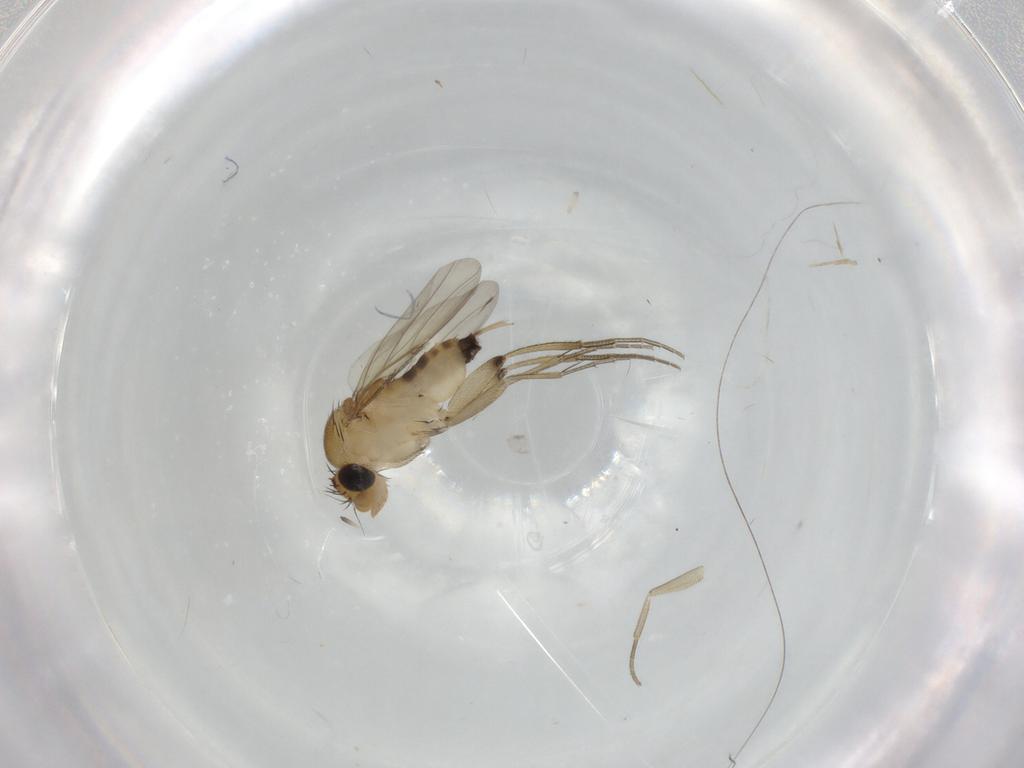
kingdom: Animalia
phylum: Arthropoda
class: Insecta
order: Diptera
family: Phoridae
